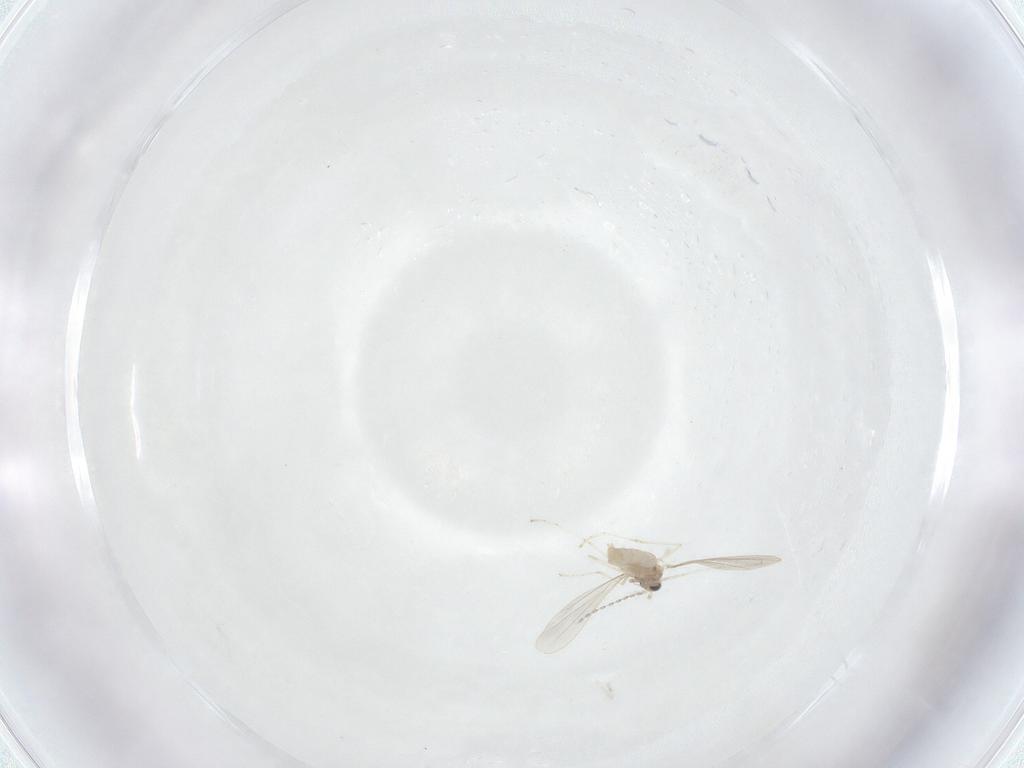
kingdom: Animalia
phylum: Arthropoda
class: Insecta
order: Diptera
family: Cecidomyiidae
